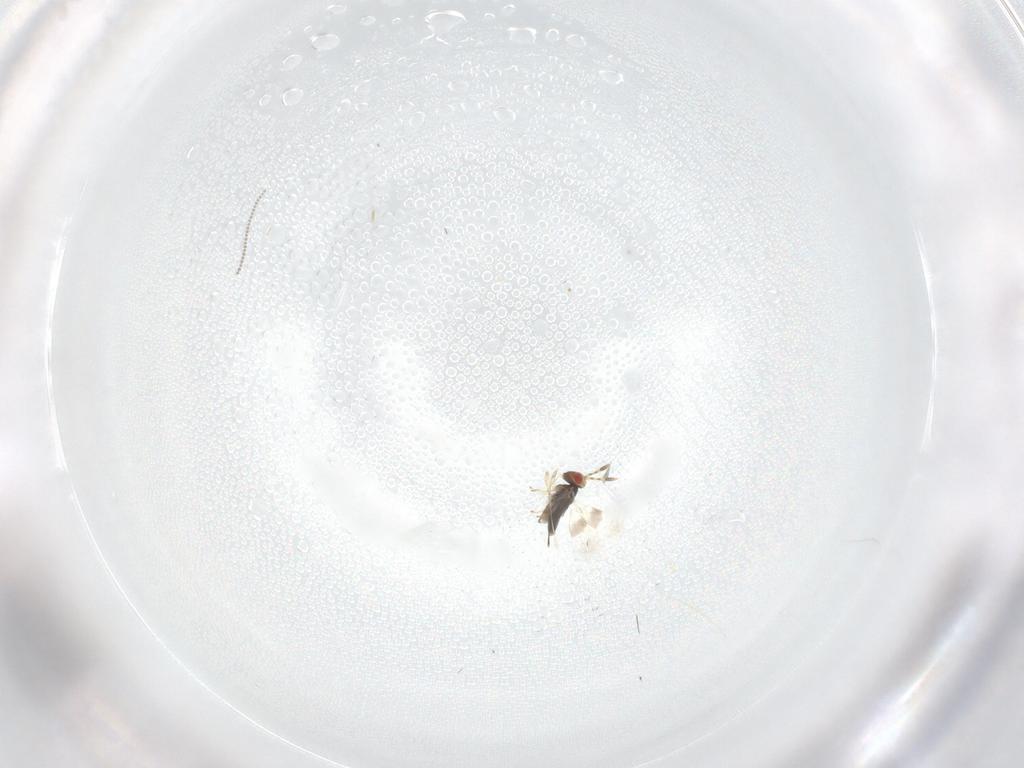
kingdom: Animalia
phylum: Arthropoda
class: Insecta
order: Hymenoptera
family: Azotidae
